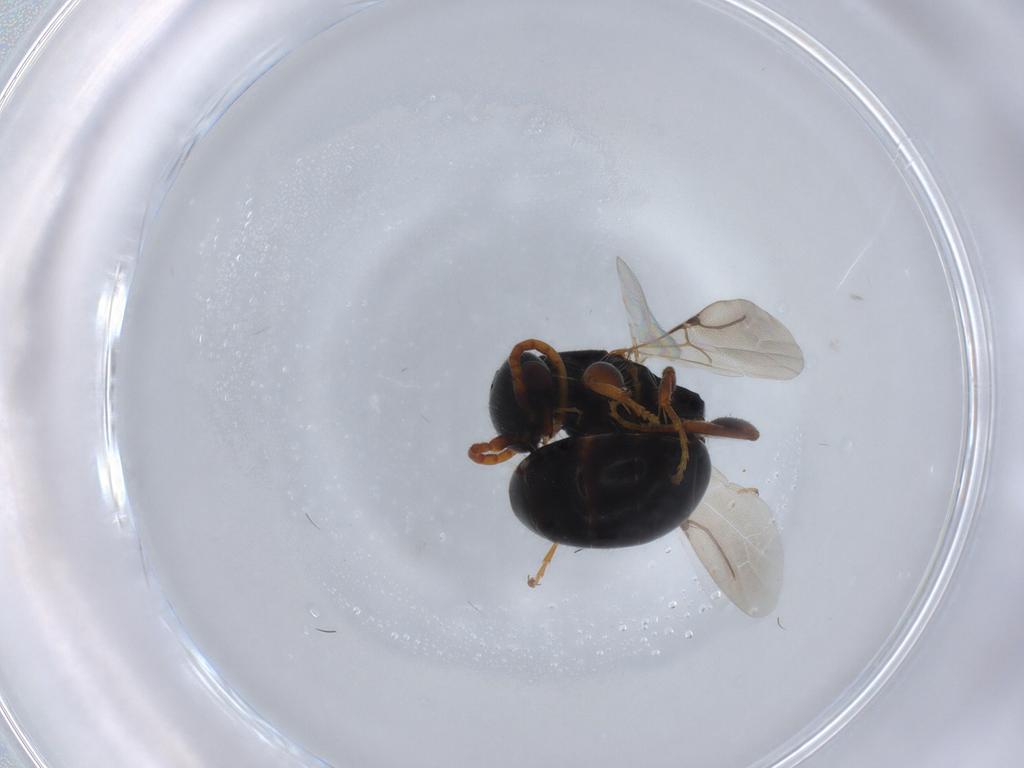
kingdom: Animalia
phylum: Arthropoda
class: Insecta
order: Hymenoptera
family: Bethylidae
